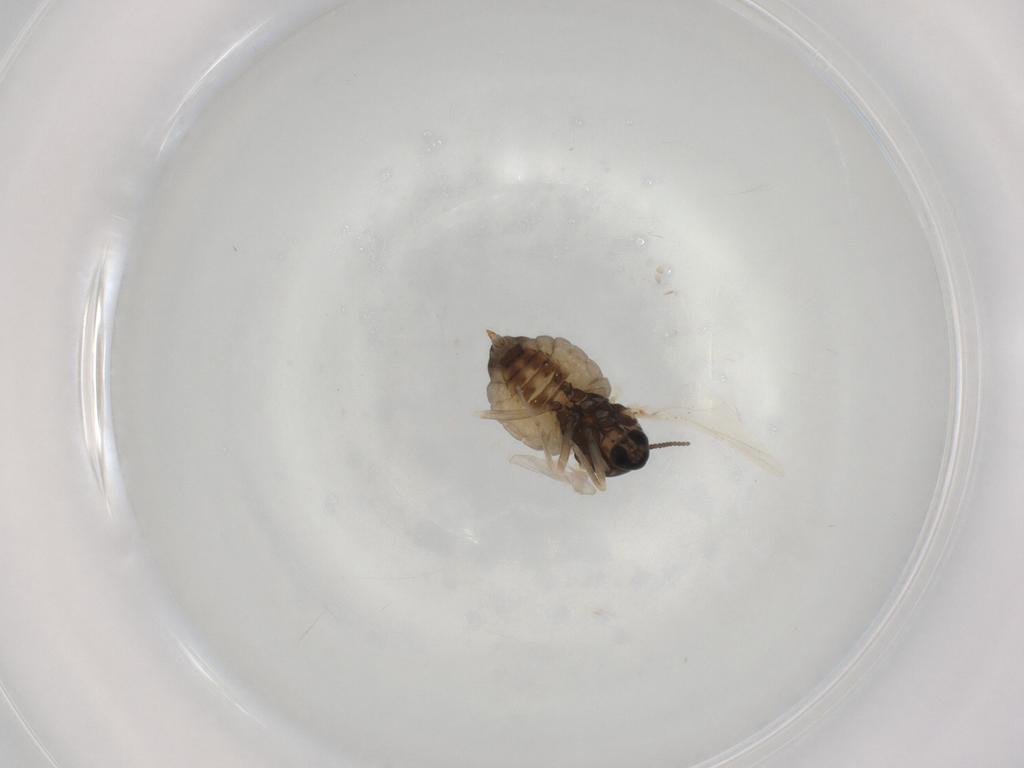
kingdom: Animalia
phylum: Arthropoda
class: Insecta
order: Diptera
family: Cecidomyiidae
